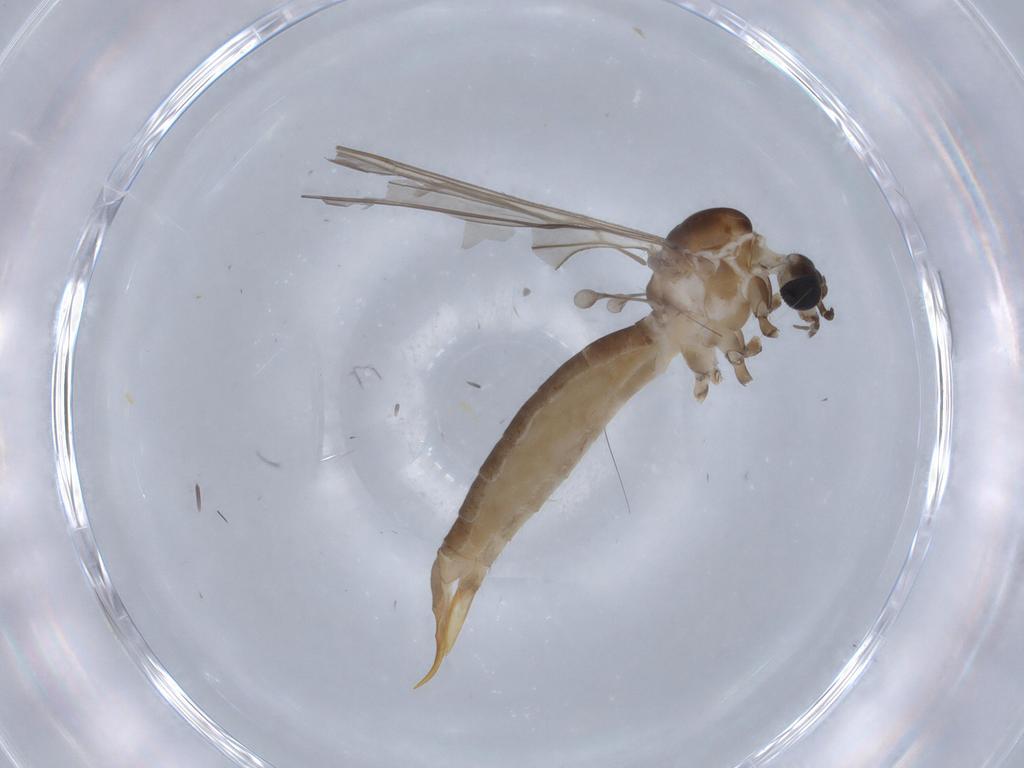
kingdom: Animalia
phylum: Arthropoda
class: Insecta
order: Diptera
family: Limoniidae
